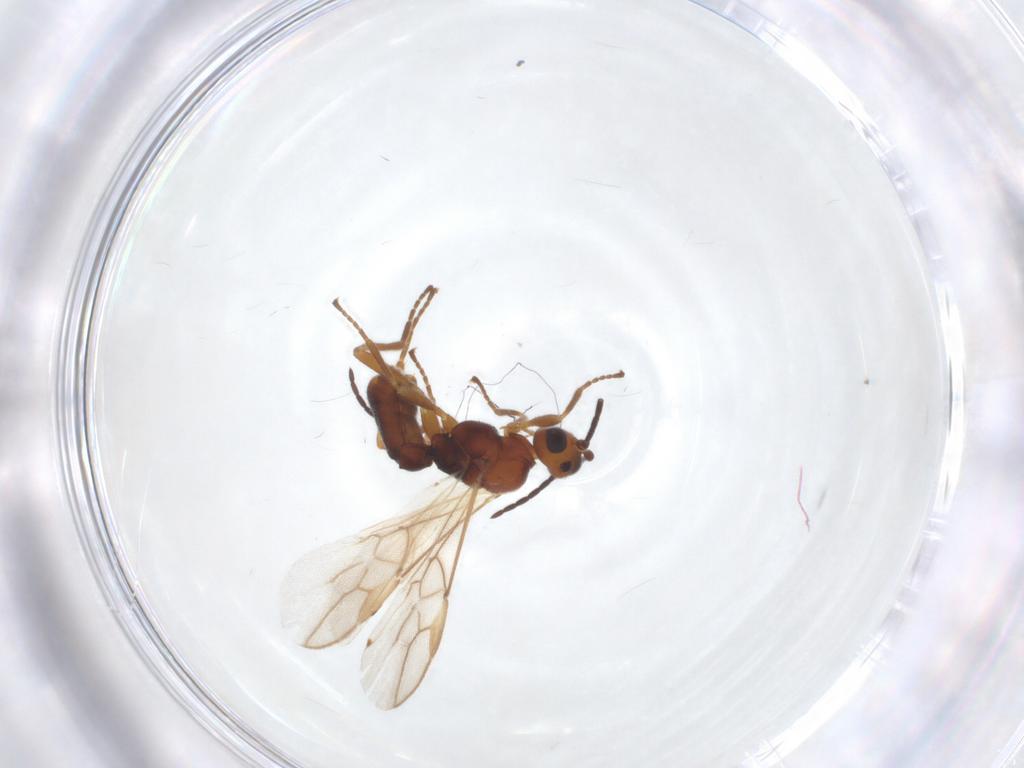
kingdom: Animalia
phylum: Arthropoda
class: Insecta
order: Hymenoptera
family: Braconidae
